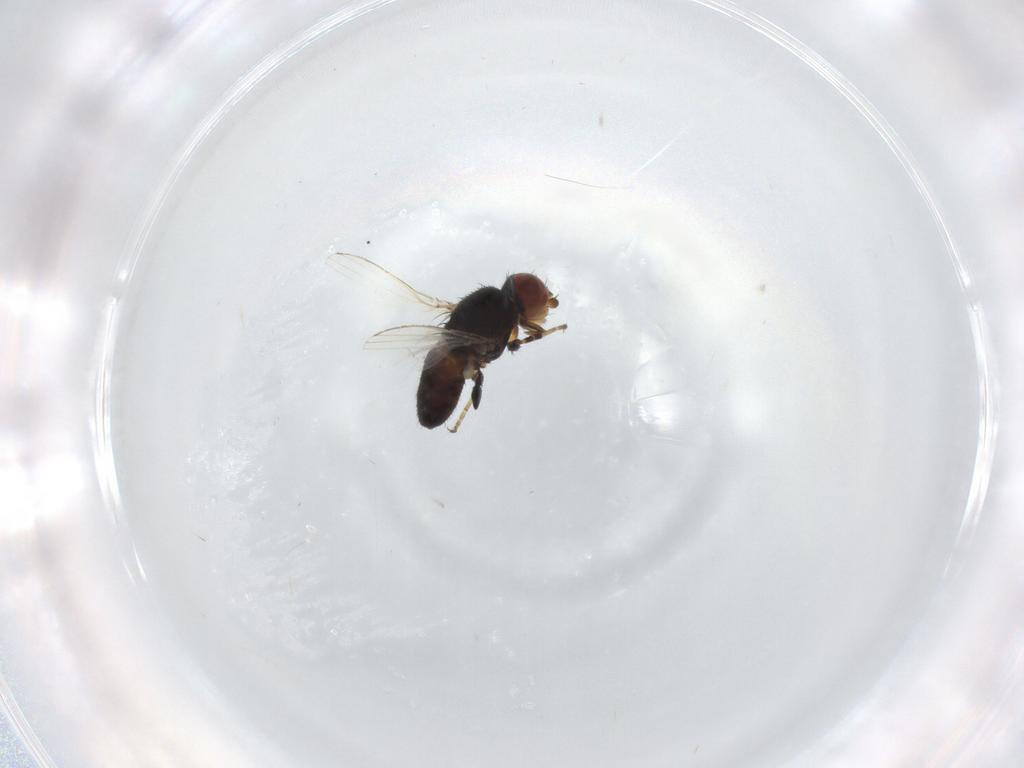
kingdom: Animalia
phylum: Arthropoda
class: Insecta
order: Diptera
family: Milichiidae
